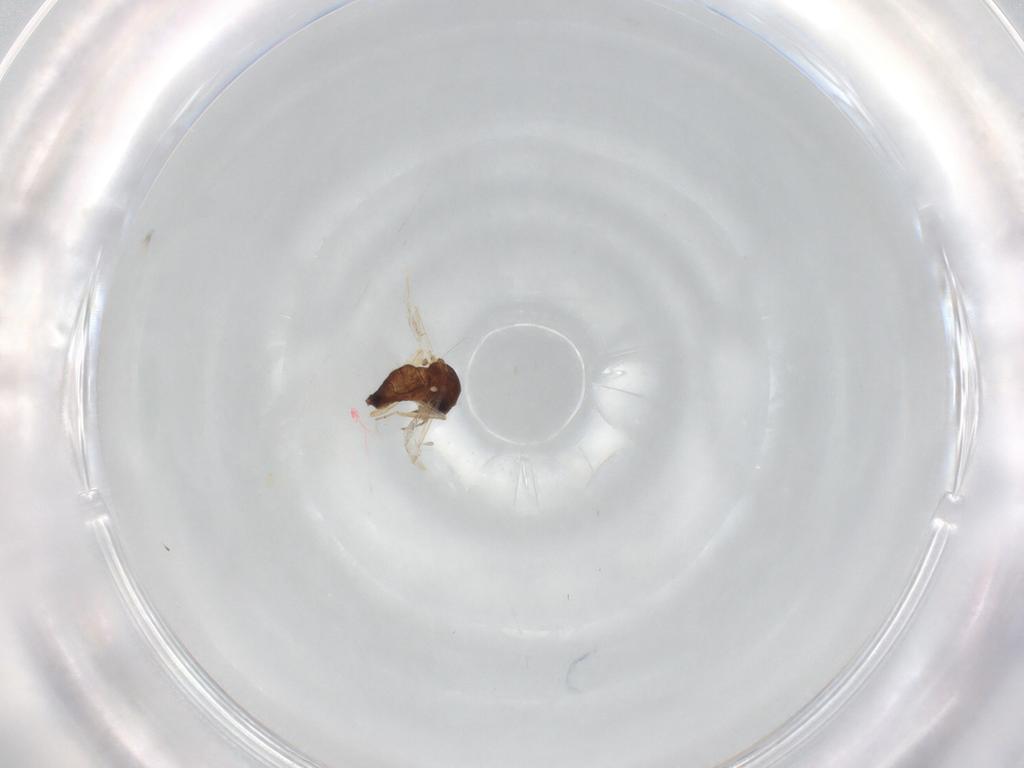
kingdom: Animalia
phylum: Arthropoda
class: Insecta
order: Diptera
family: Ceratopogonidae
